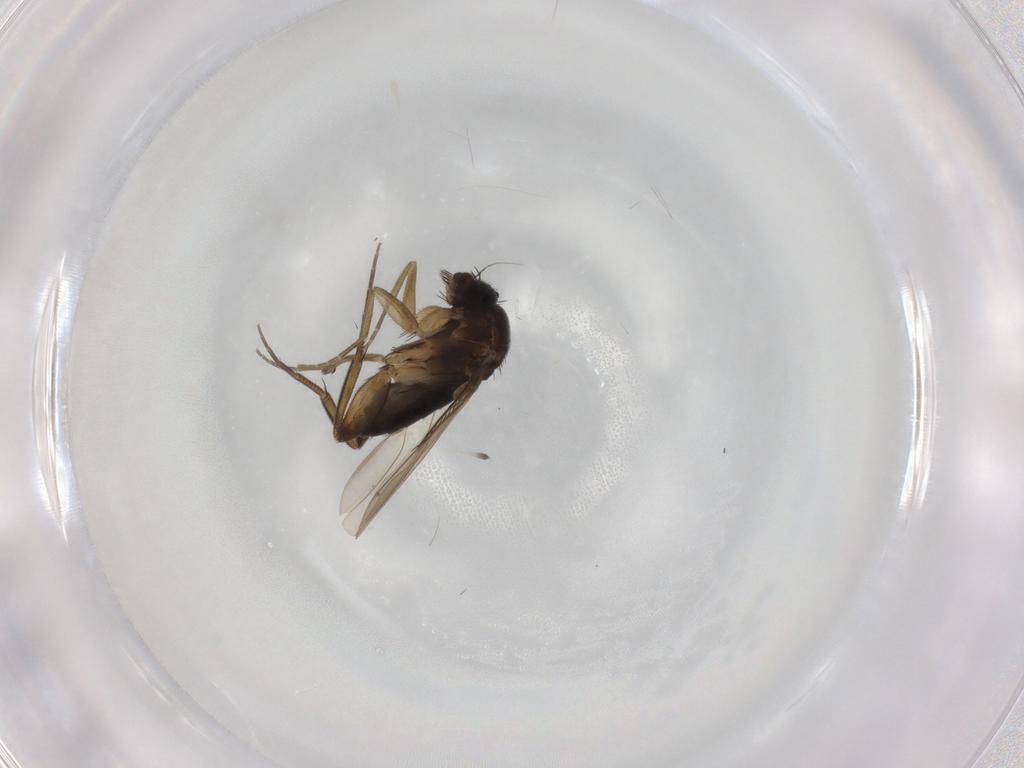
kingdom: Animalia
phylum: Arthropoda
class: Insecta
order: Diptera
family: Phoridae
